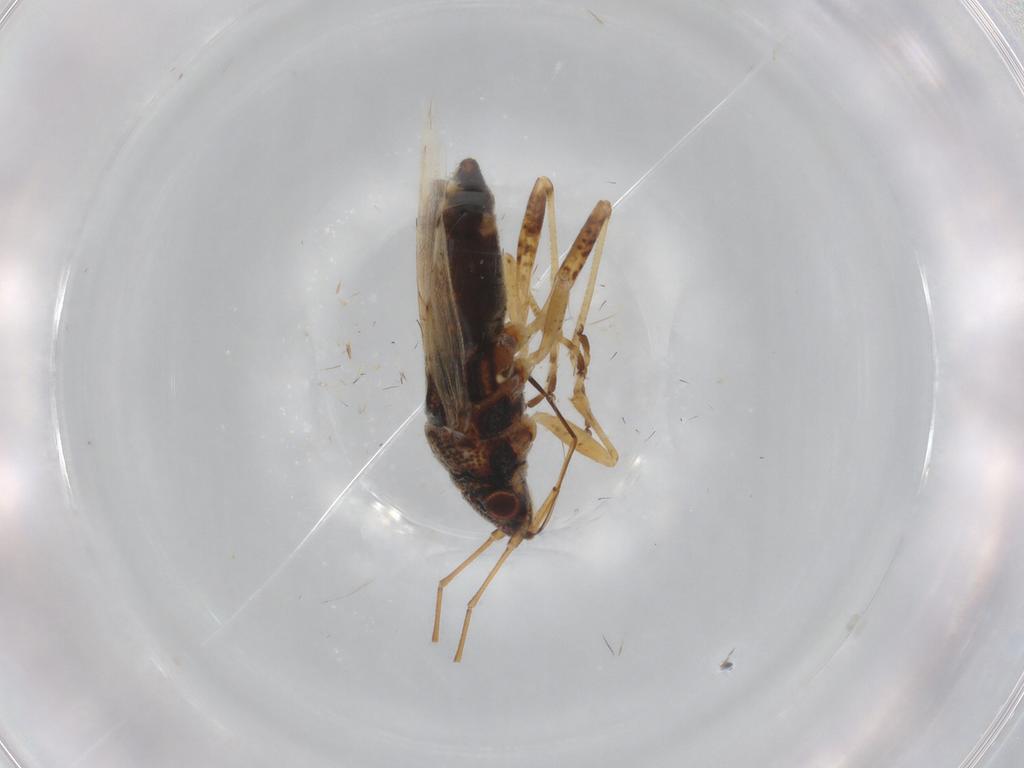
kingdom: Animalia
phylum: Arthropoda
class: Insecta
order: Hemiptera
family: Lygaeidae
